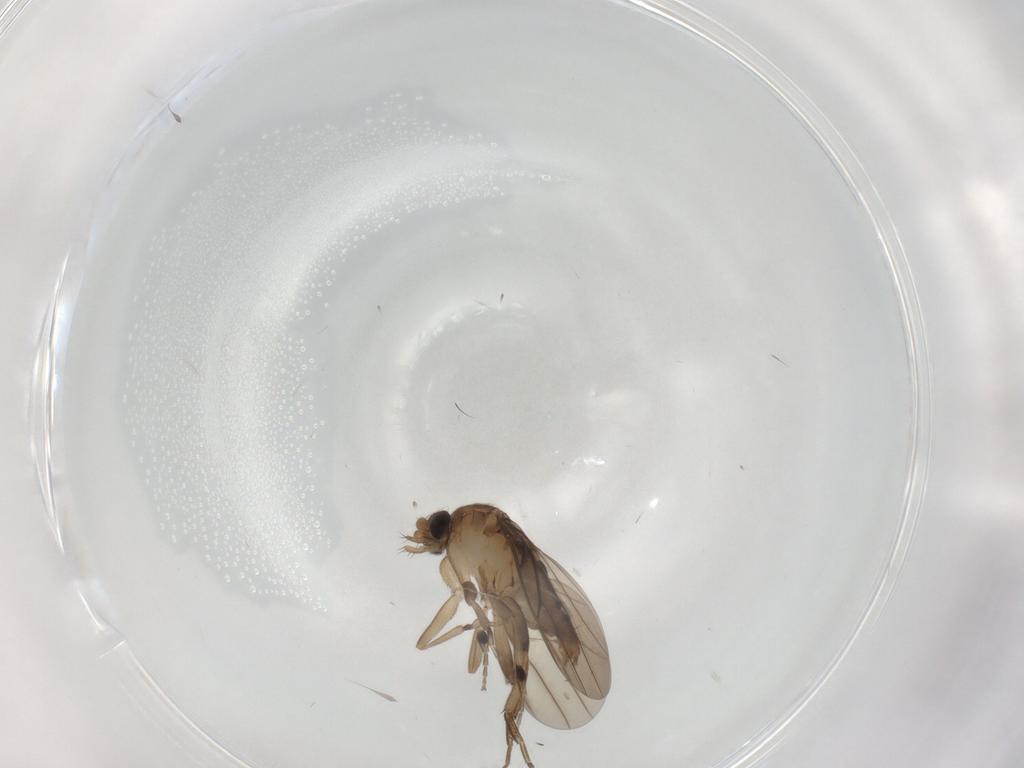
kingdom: Animalia
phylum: Arthropoda
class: Insecta
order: Diptera
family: Cecidomyiidae
